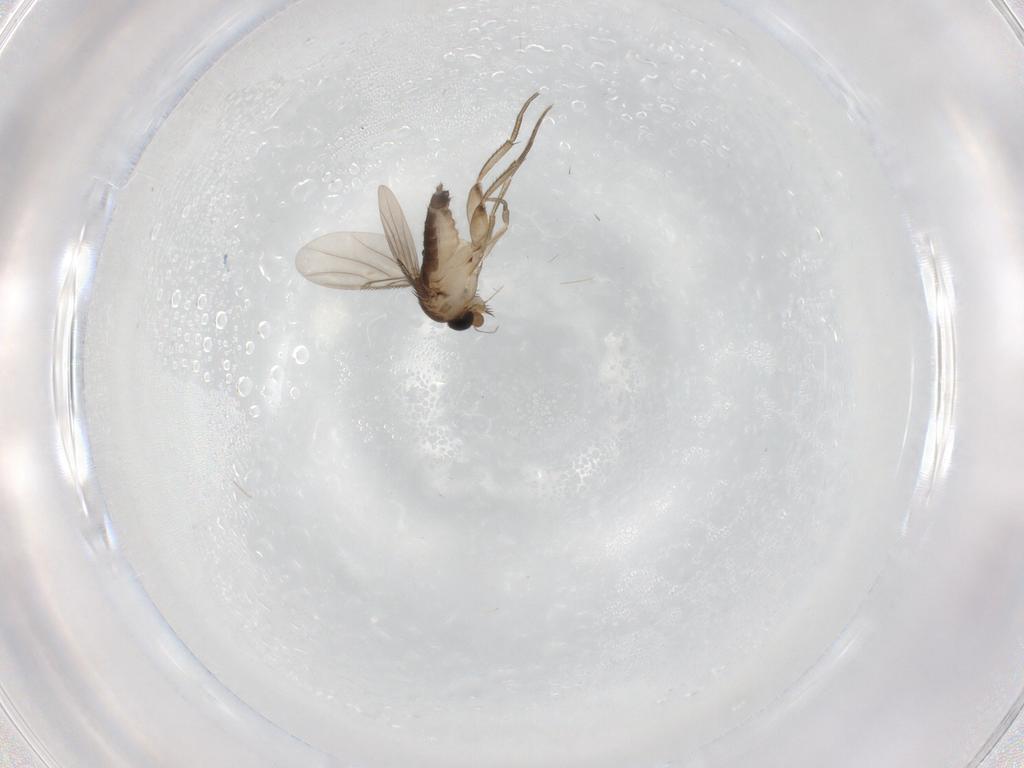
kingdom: Animalia
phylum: Arthropoda
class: Insecta
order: Diptera
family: Phoridae
